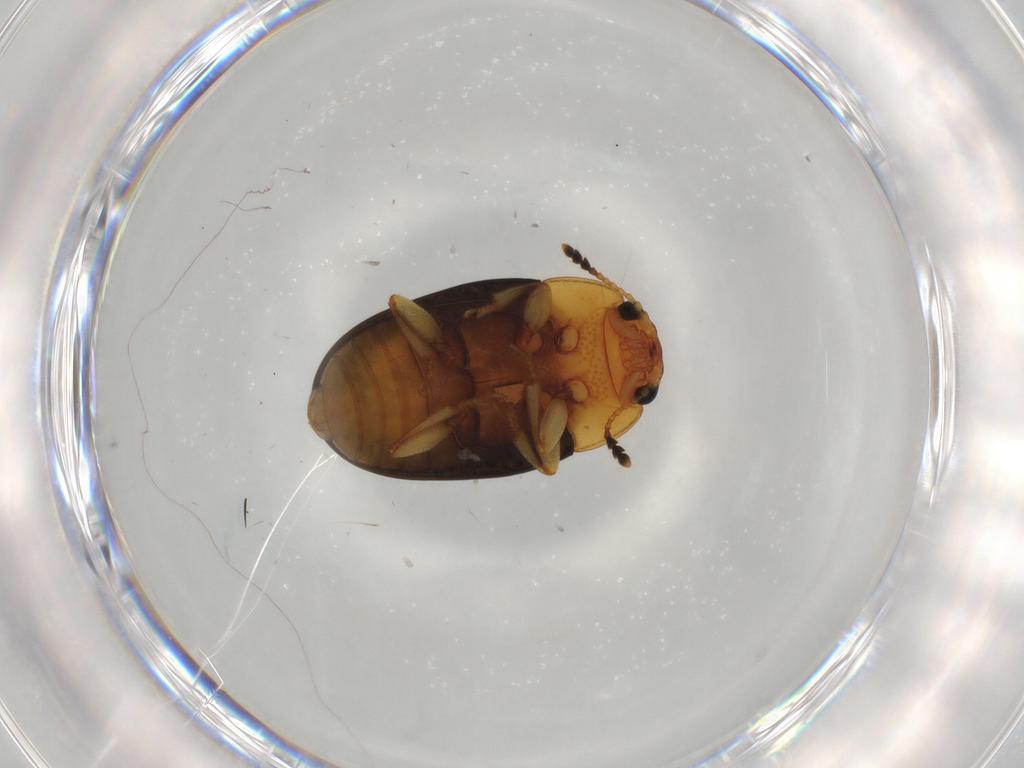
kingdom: Animalia
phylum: Arthropoda
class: Insecta
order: Coleoptera
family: Erotylidae
